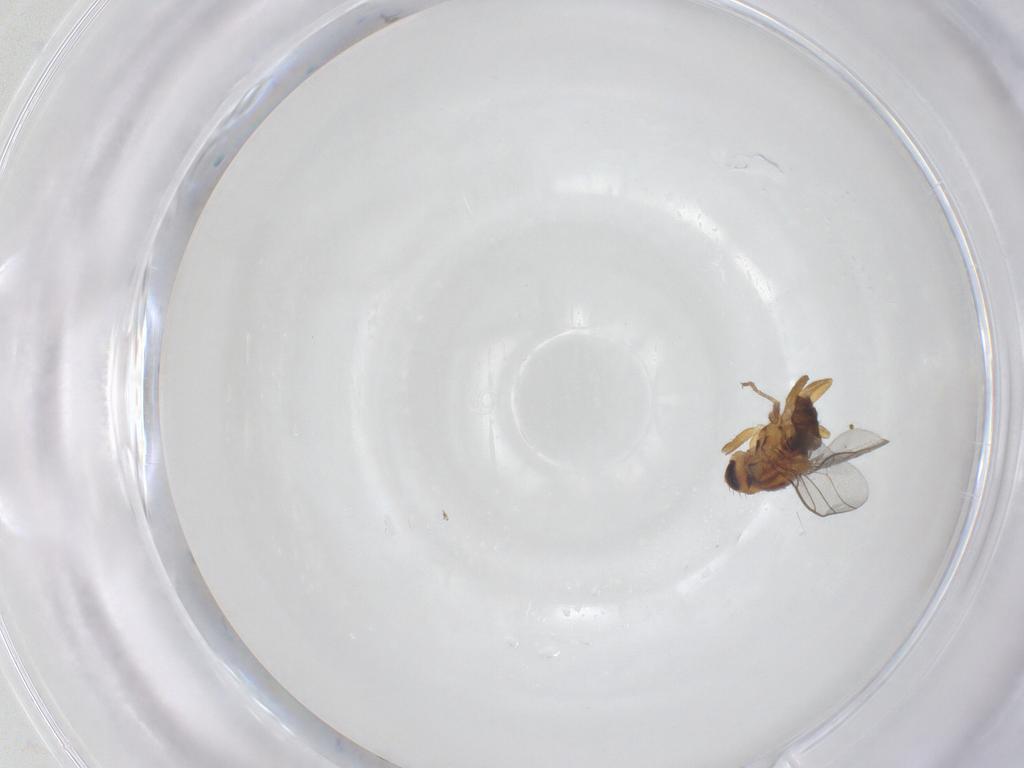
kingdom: Animalia
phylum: Arthropoda
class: Insecta
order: Diptera
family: Chloropidae
